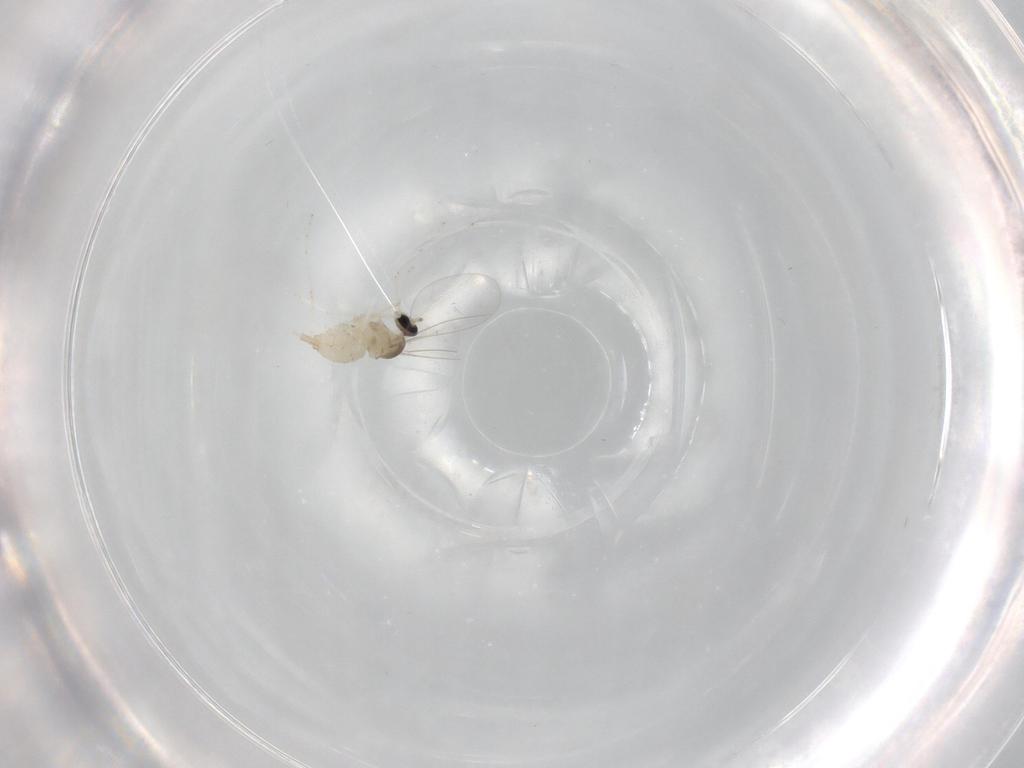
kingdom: Animalia
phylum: Arthropoda
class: Insecta
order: Diptera
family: Cecidomyiidae
